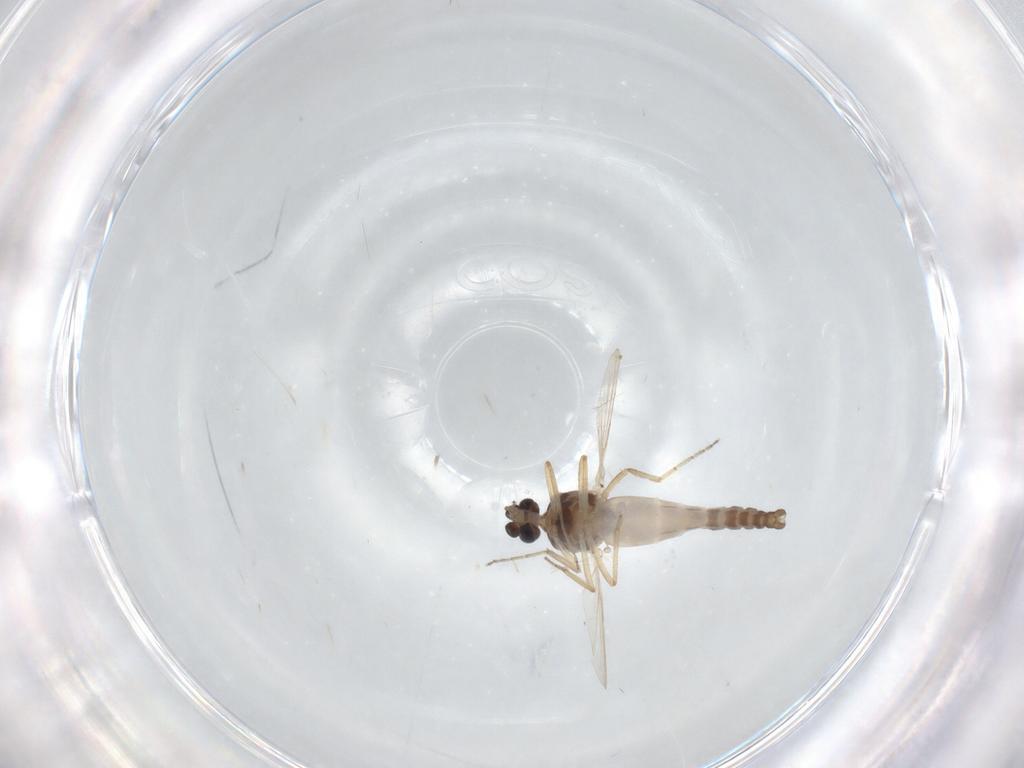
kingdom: Animalia
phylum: Arthropoda
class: Insecta
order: Diptera
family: Ceratopogonidae
